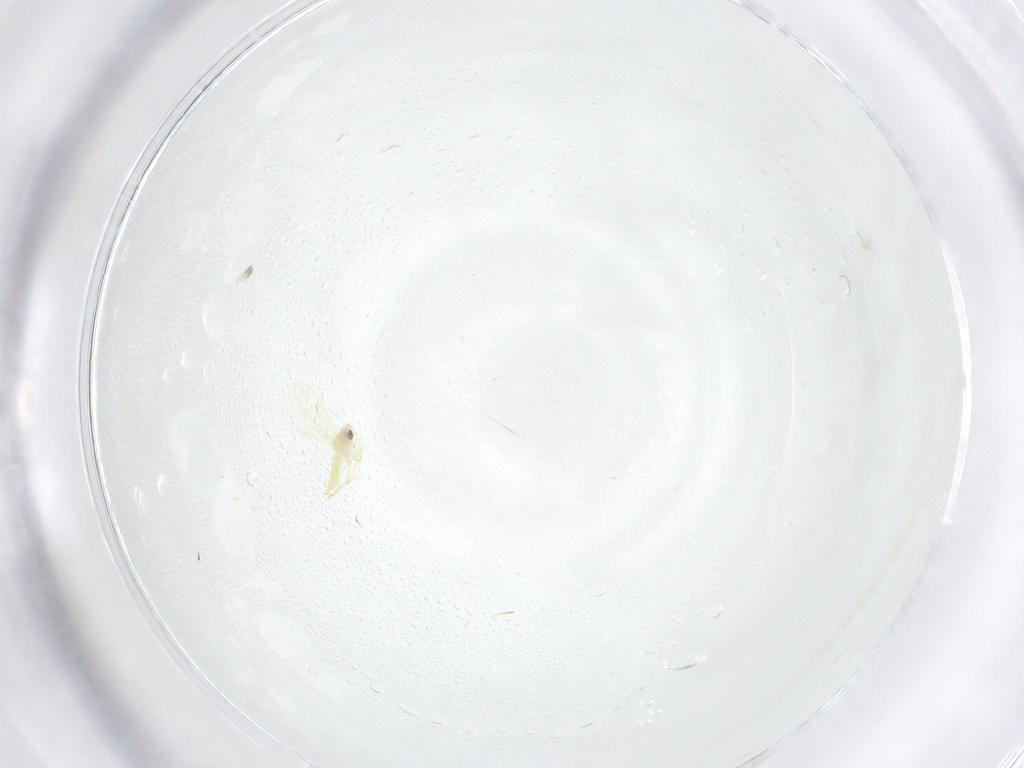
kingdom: Animalia
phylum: Arthropoda
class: Insecta
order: Hemiptera
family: Aleyrodidae
